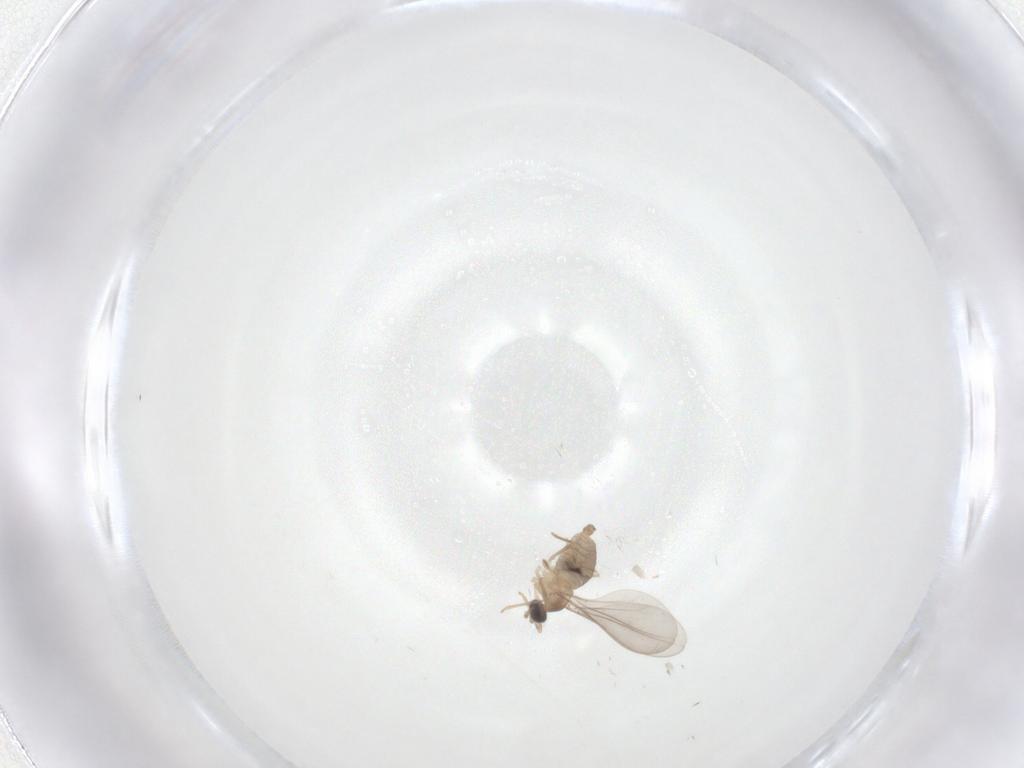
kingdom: Animalia
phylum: Arthropoda
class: Insecta
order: Diptera
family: Cecidomyiidae
